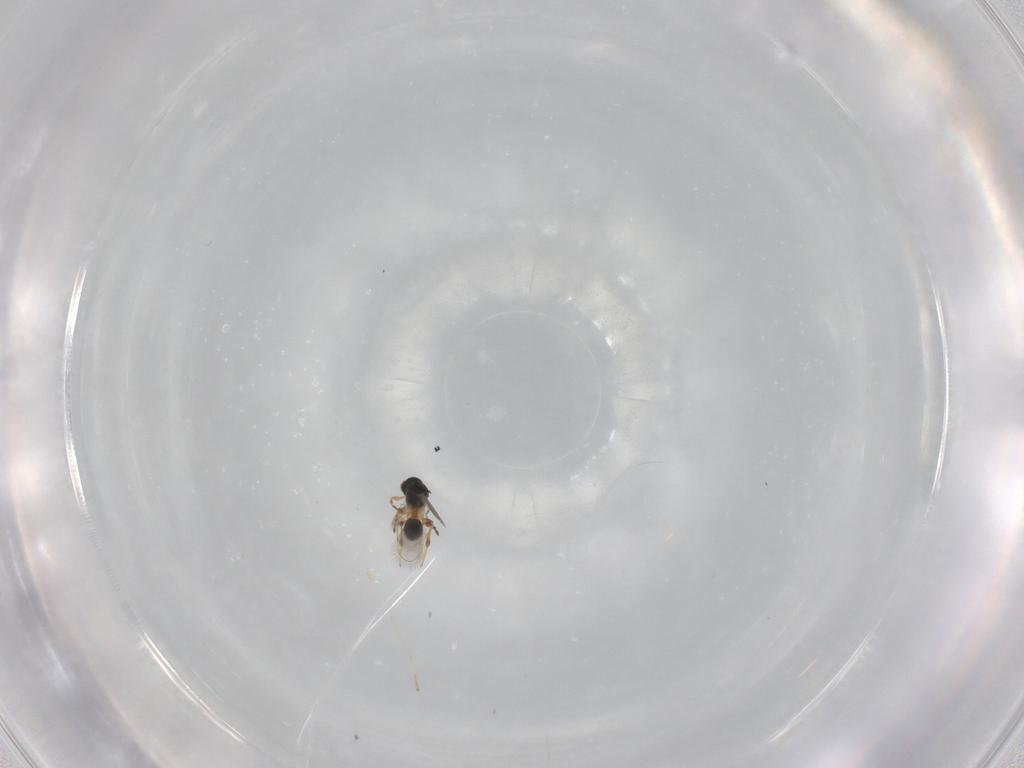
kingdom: Animalia
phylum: Arthropoda
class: Insecta
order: Hymenoptera
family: Platygastridae
